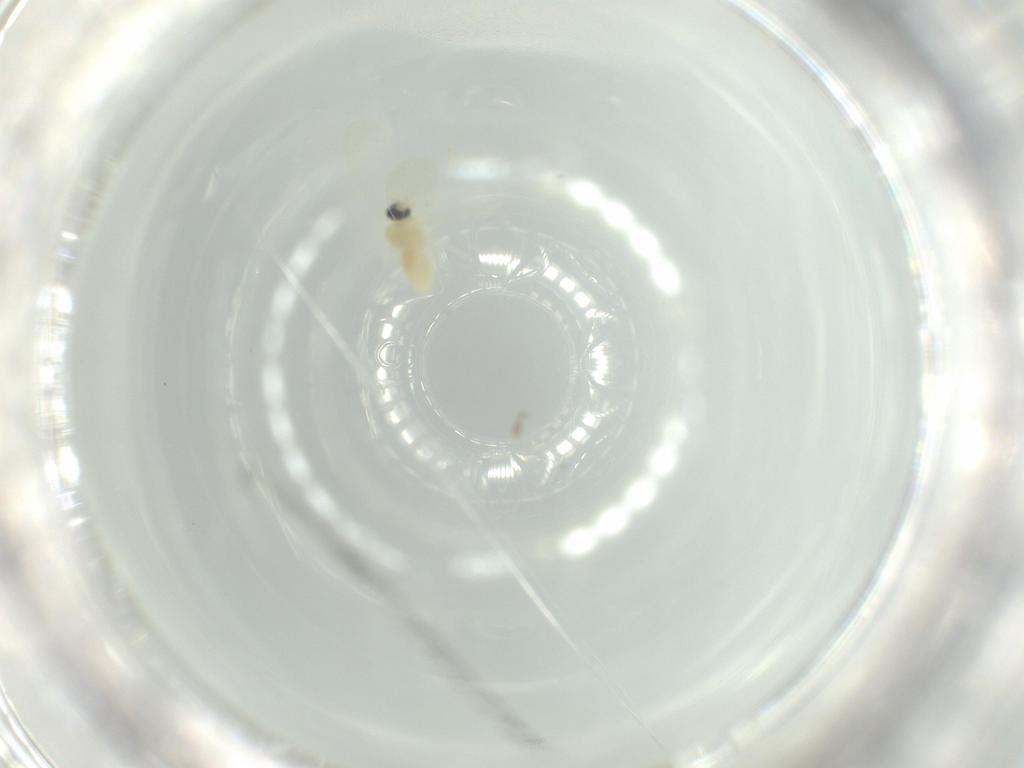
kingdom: Animalia
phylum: Arthropoda
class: Insecta
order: Diptera
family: Cecidomyiidae
